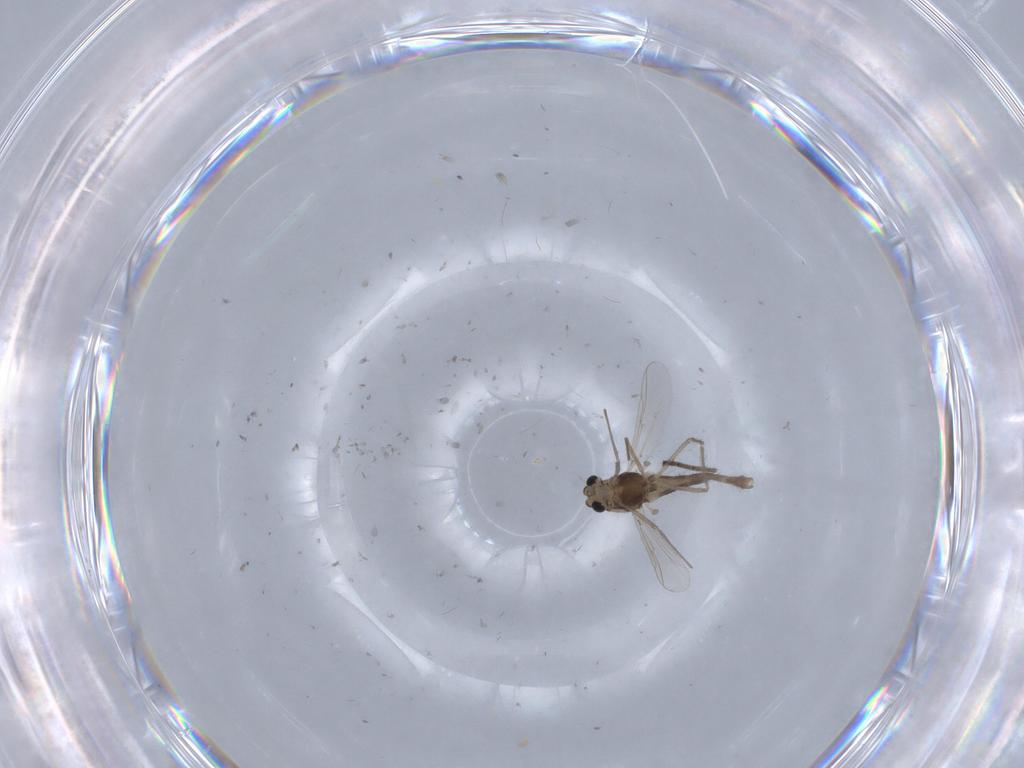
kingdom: Animalia
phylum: Arthropoda
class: Insecta
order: Diptera
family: Chironomidae
